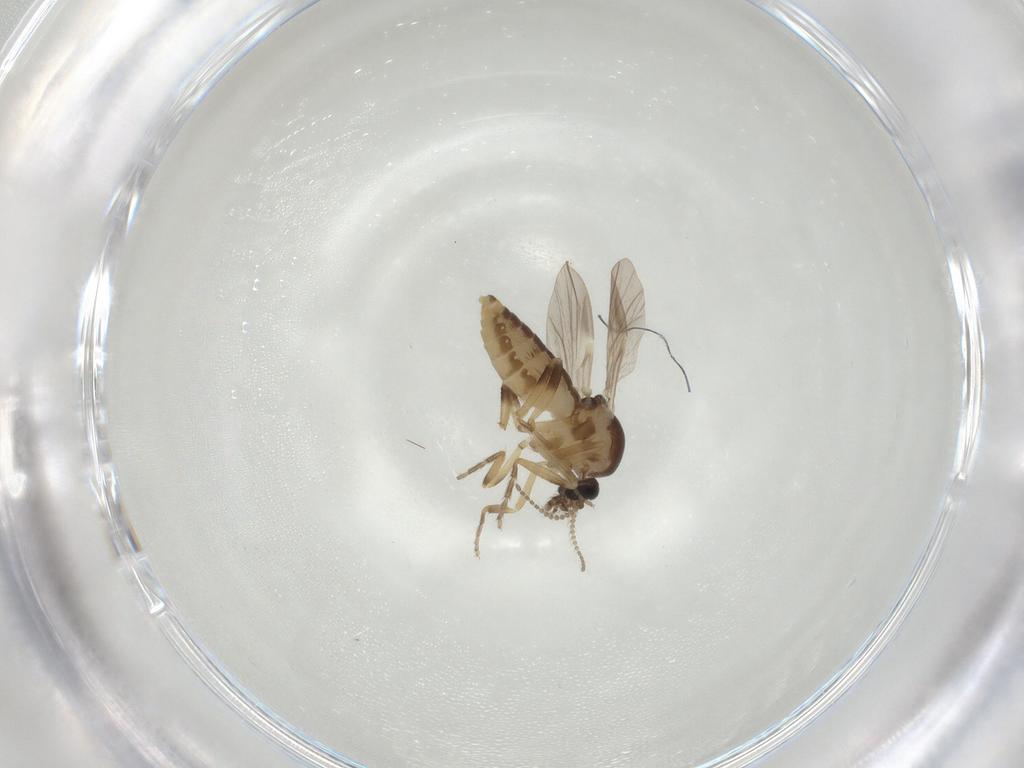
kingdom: Animalia
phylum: Arthropoda
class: Insecta
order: Diptera
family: Ceratopogonidae
